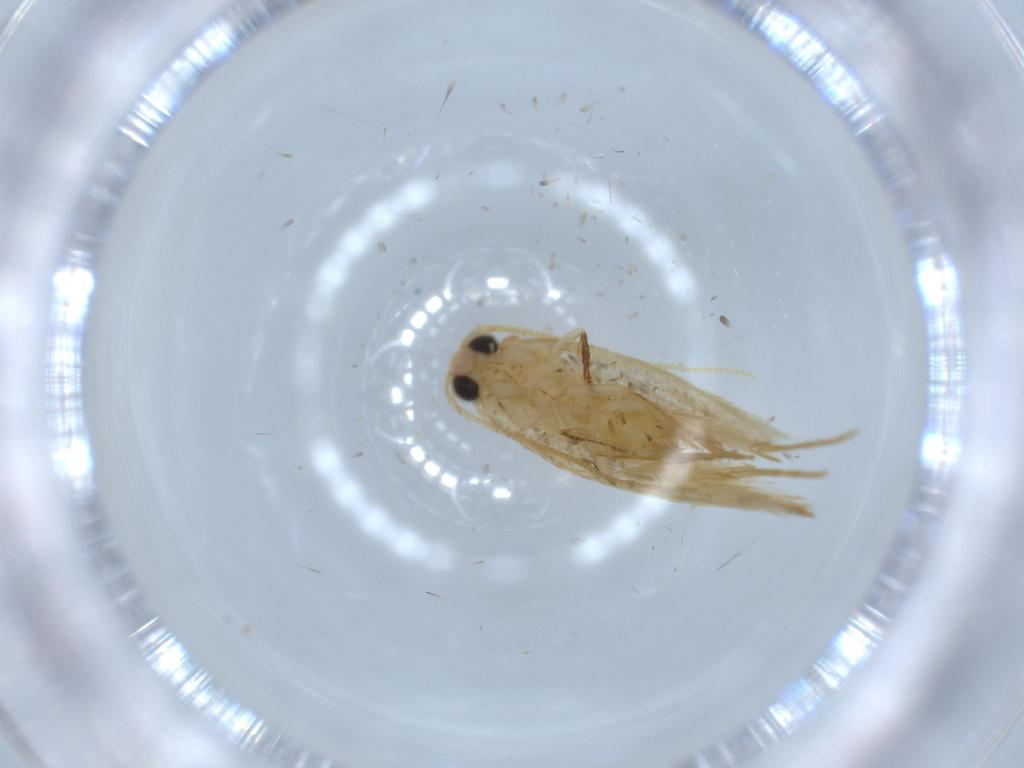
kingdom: Animalia
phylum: Arthropoda
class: Insecta
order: Lepidoptera
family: Tineidae
